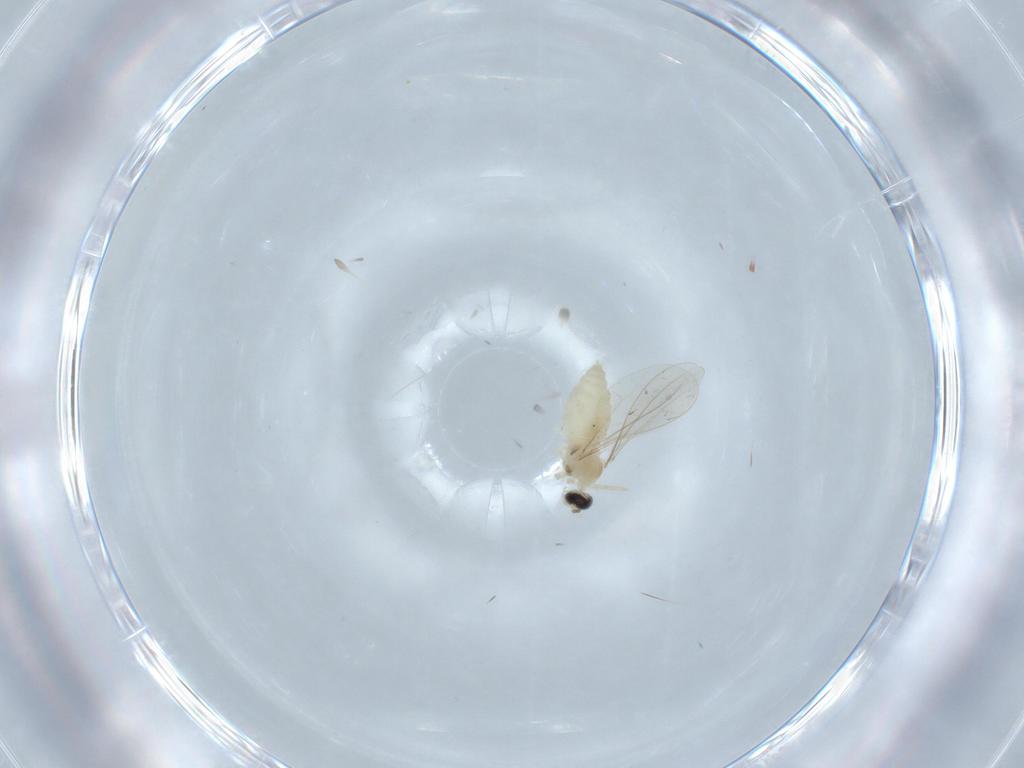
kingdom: Animalia
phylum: Arthropoda
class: Insecta
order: Diptera
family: Cecidomyiidae
